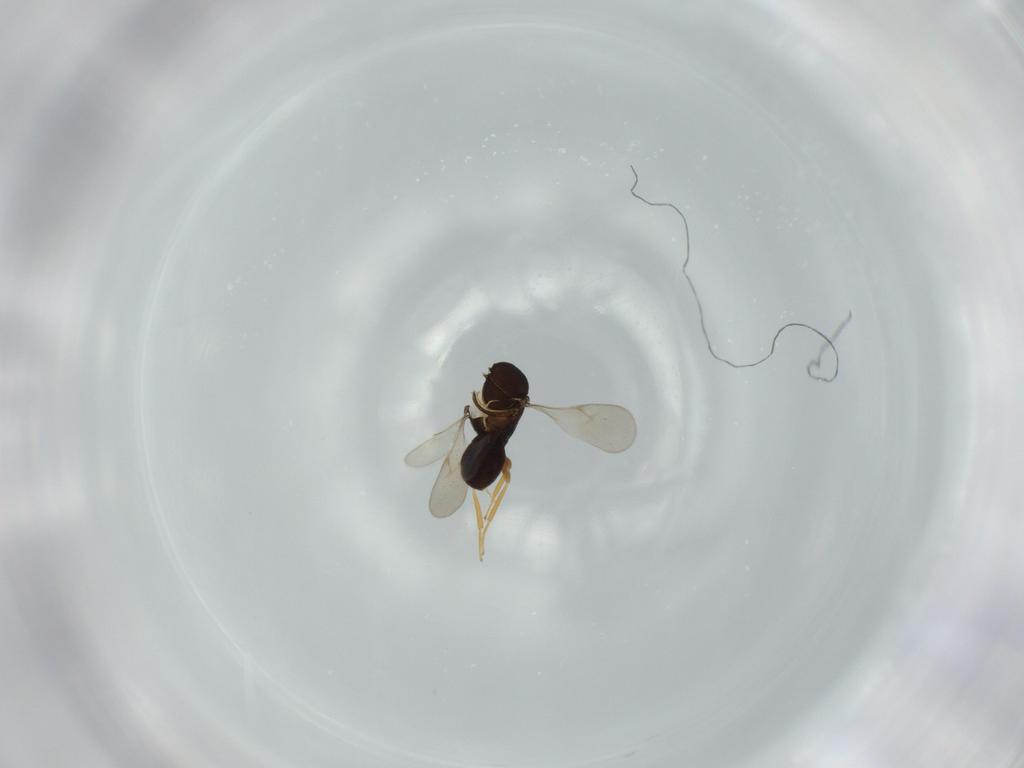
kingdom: Animalia
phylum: Arthropoda
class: Insecta
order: Hymenoptera
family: Scelionidae
